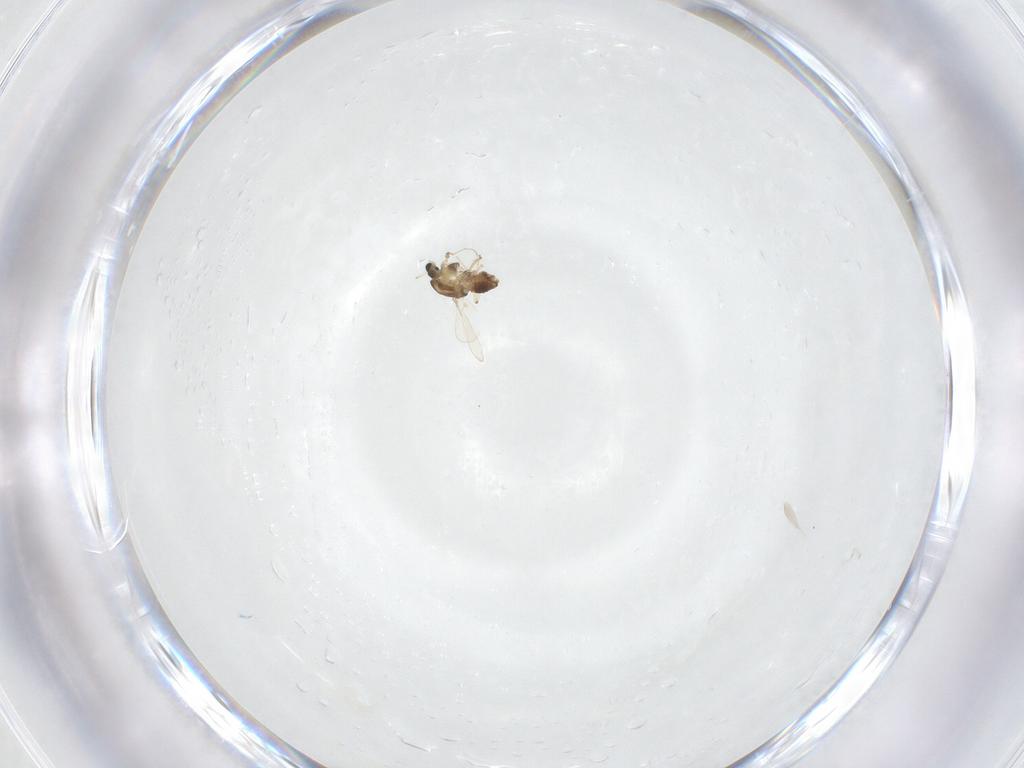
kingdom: Animalia
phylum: Arthropoda
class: Insecta
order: Diptera
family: Chironomidae
